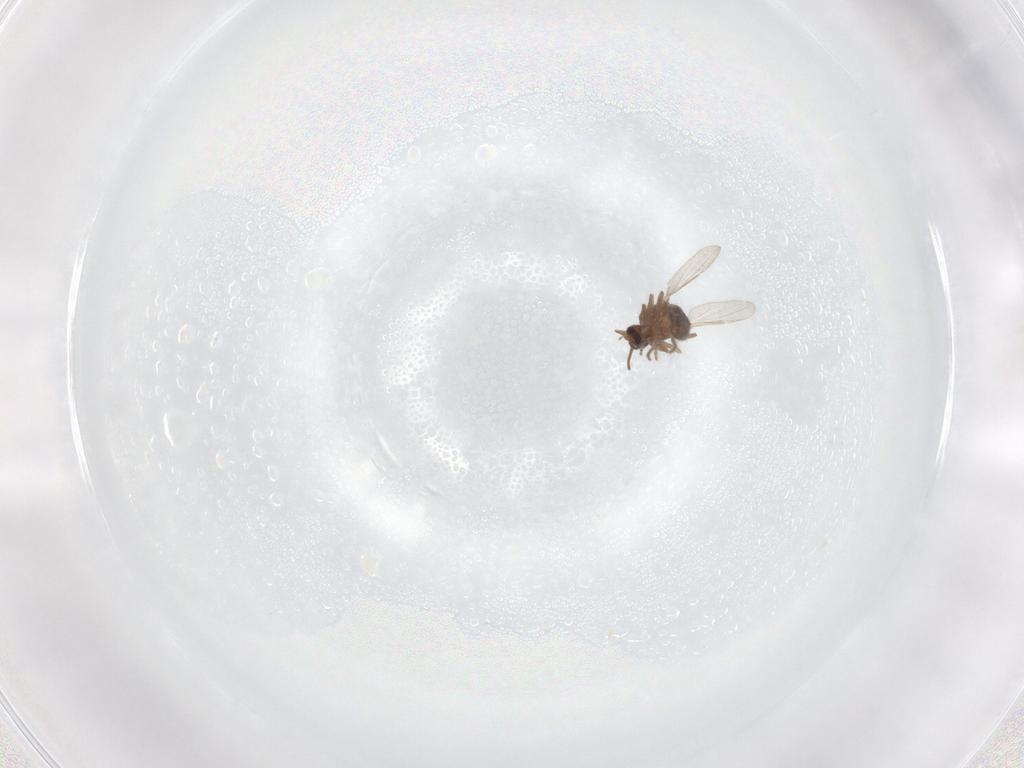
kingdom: Animalia
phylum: Arthropoda
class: Insecta
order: Diptera
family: Ceratopogonidae
